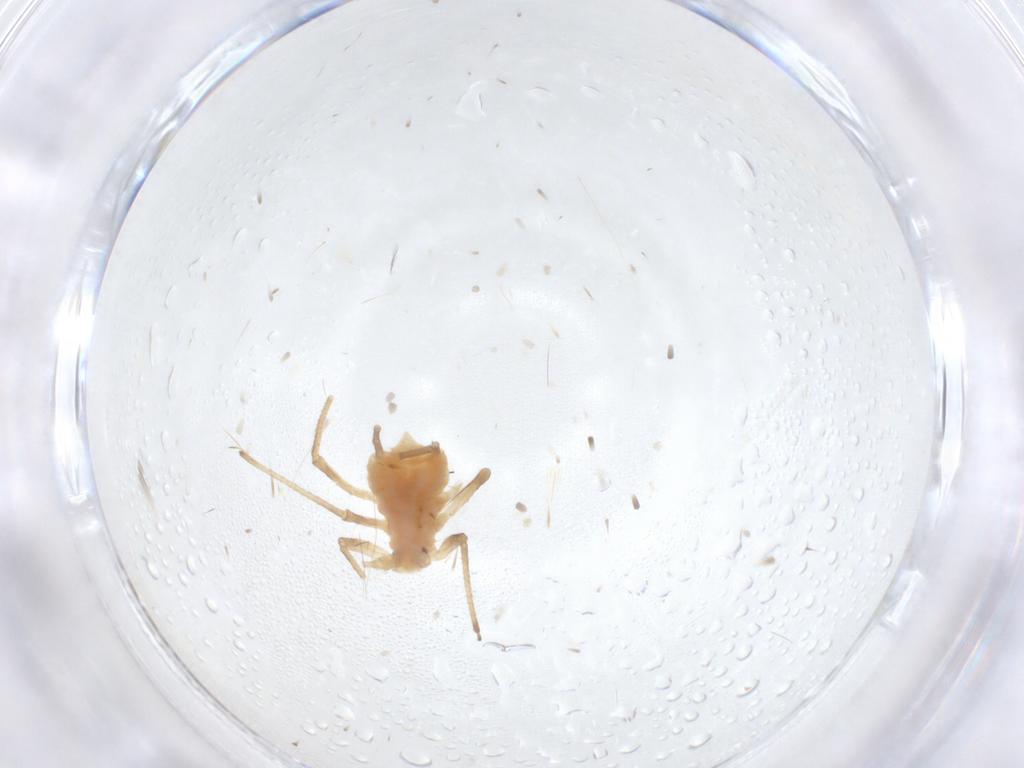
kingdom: Animalia
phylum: Arthropoda
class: Insecta
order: Hemiptera
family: Aphididae
